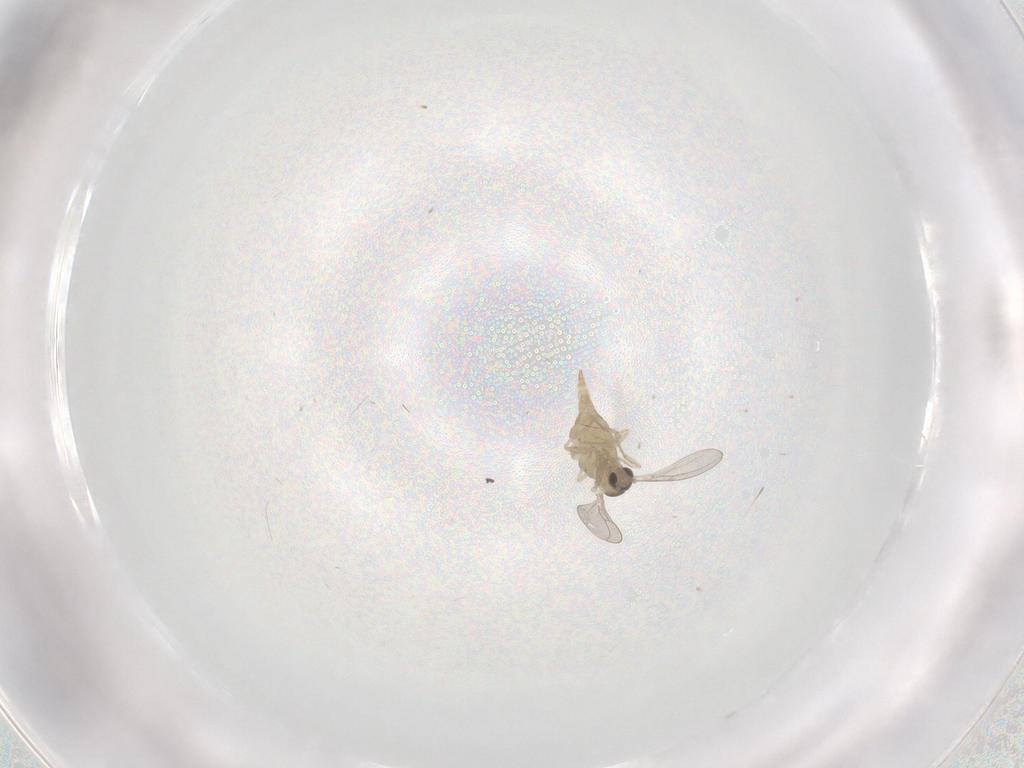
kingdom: Animalia
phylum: Arthropoda
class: Insecta
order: Diptera
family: Cecidomyiidae
